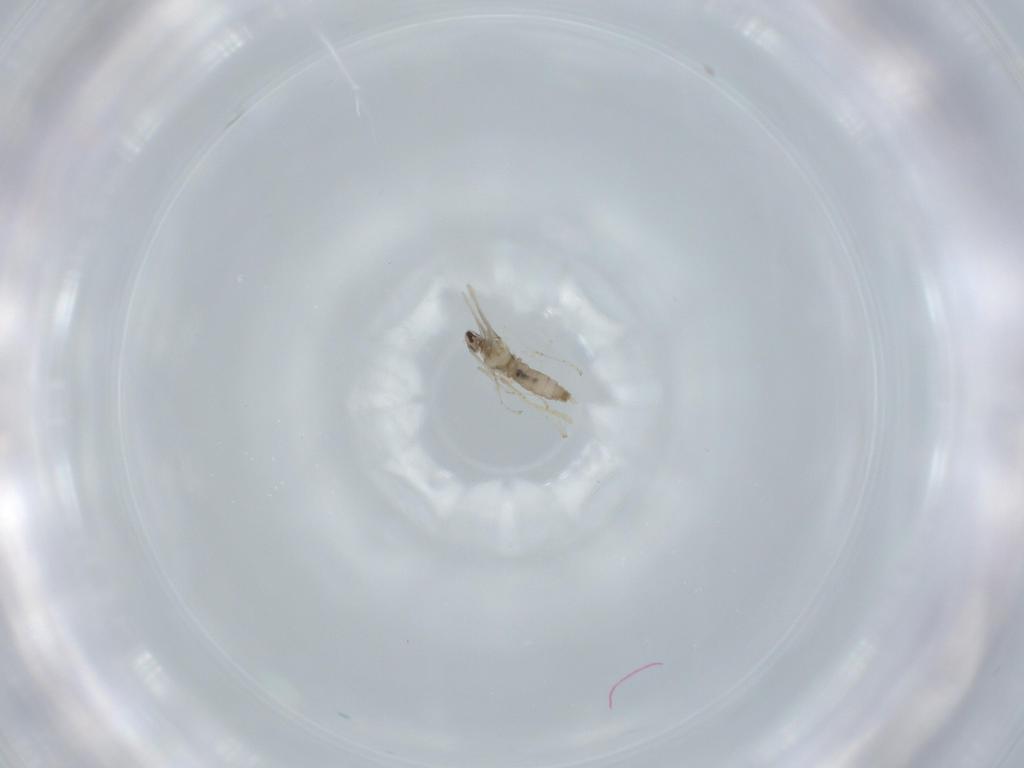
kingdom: Animalia
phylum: Arthropoda
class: Insecta
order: Diptera
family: Cecidomyiidae
